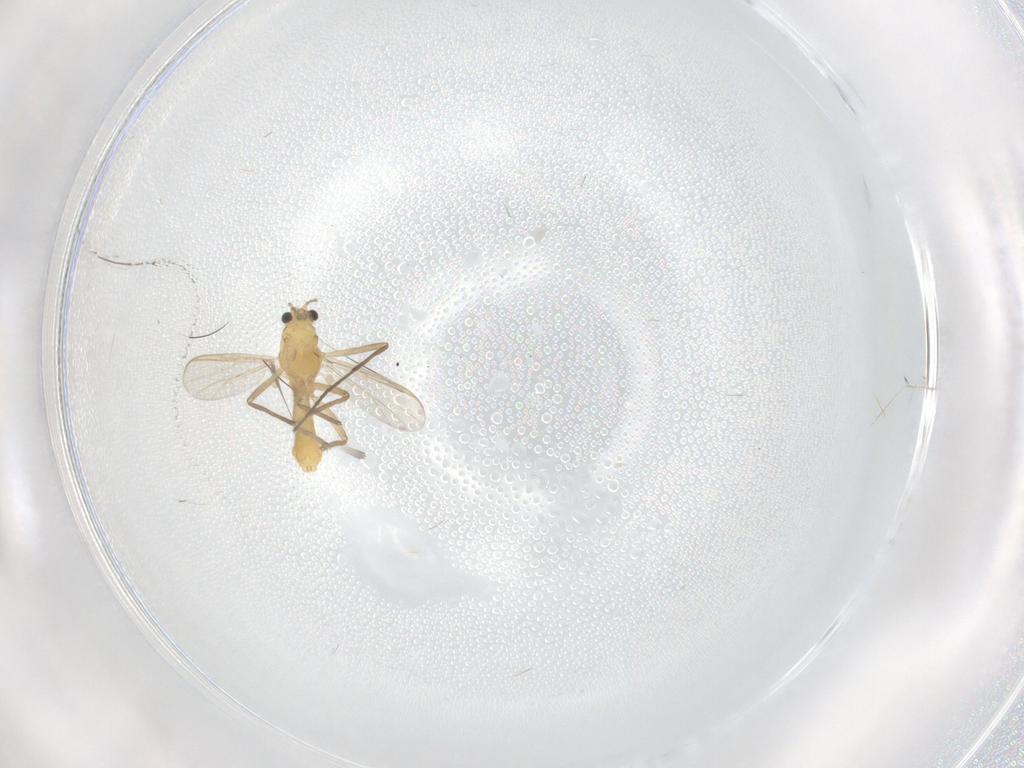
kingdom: Animalia
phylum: Arthropoda
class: Insecta
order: Diptera
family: Chironomidae
